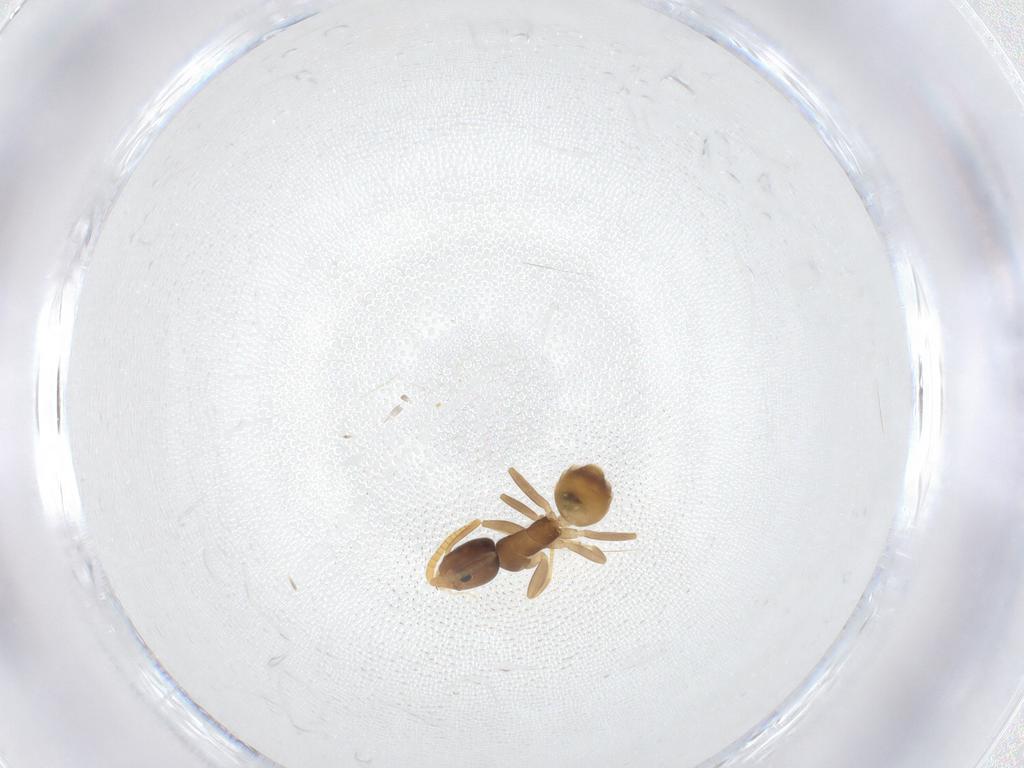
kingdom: Animalia
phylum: Arthropoda
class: Insecta
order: Hymenoptera
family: Formicidae
